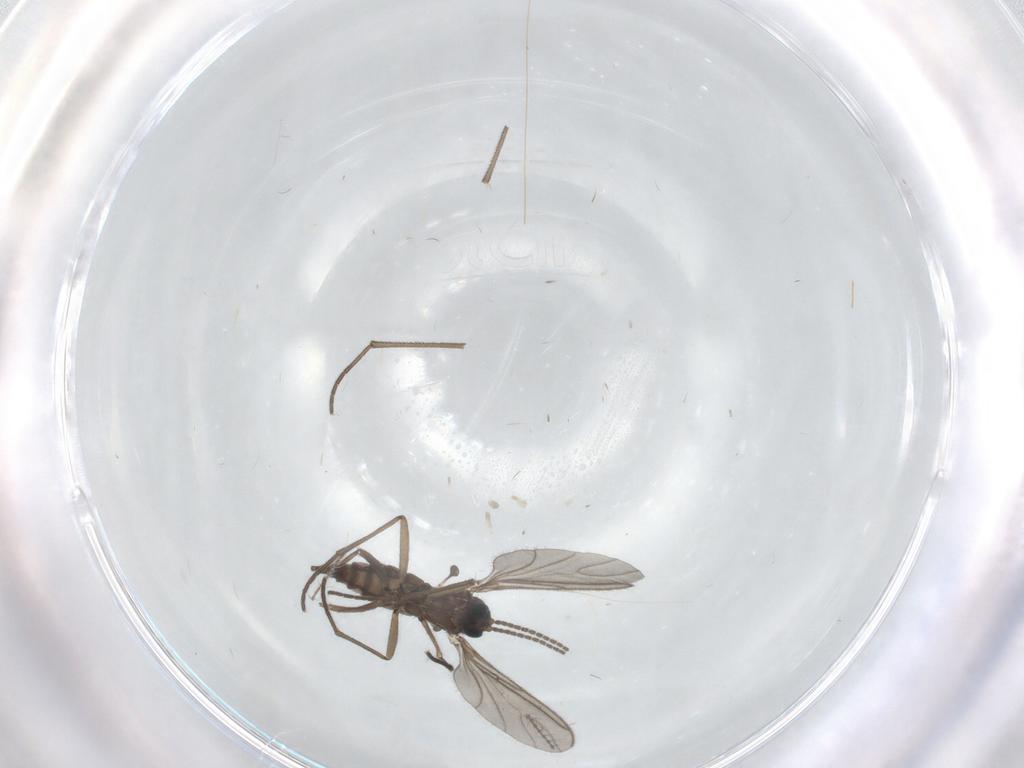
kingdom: Animalia
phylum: Arthropoda
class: Insecta
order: Diptera
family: Sciaridae
